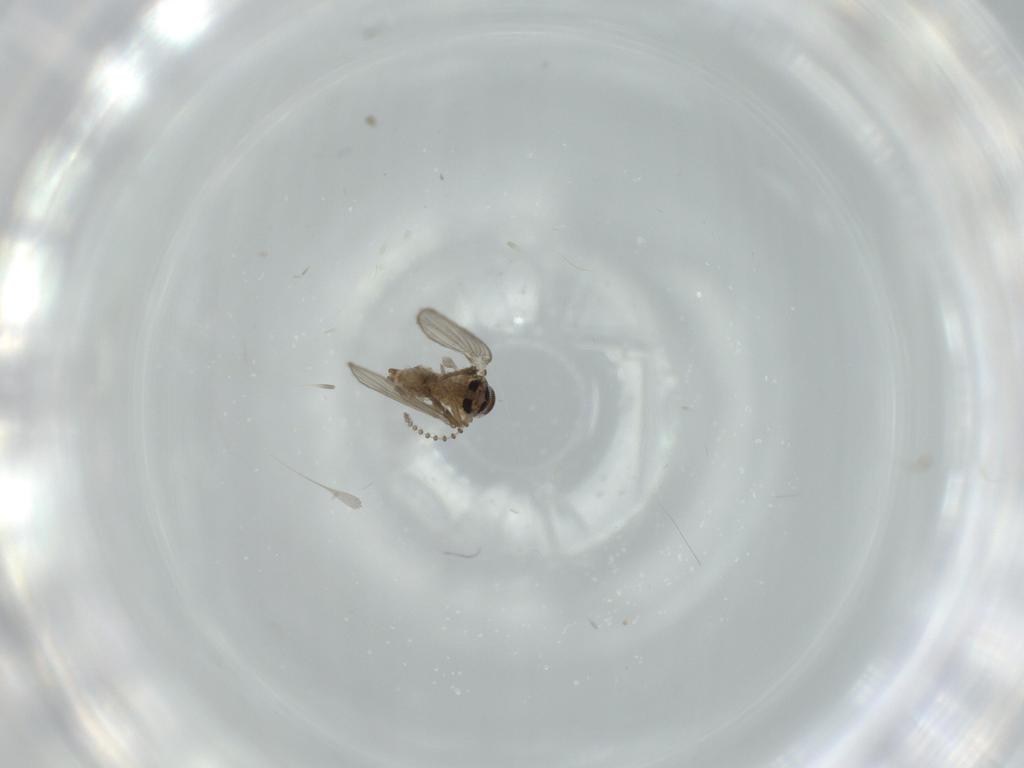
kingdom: Animalia
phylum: Arthropoda
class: Insecta
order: Diptera
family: Psychodidae
